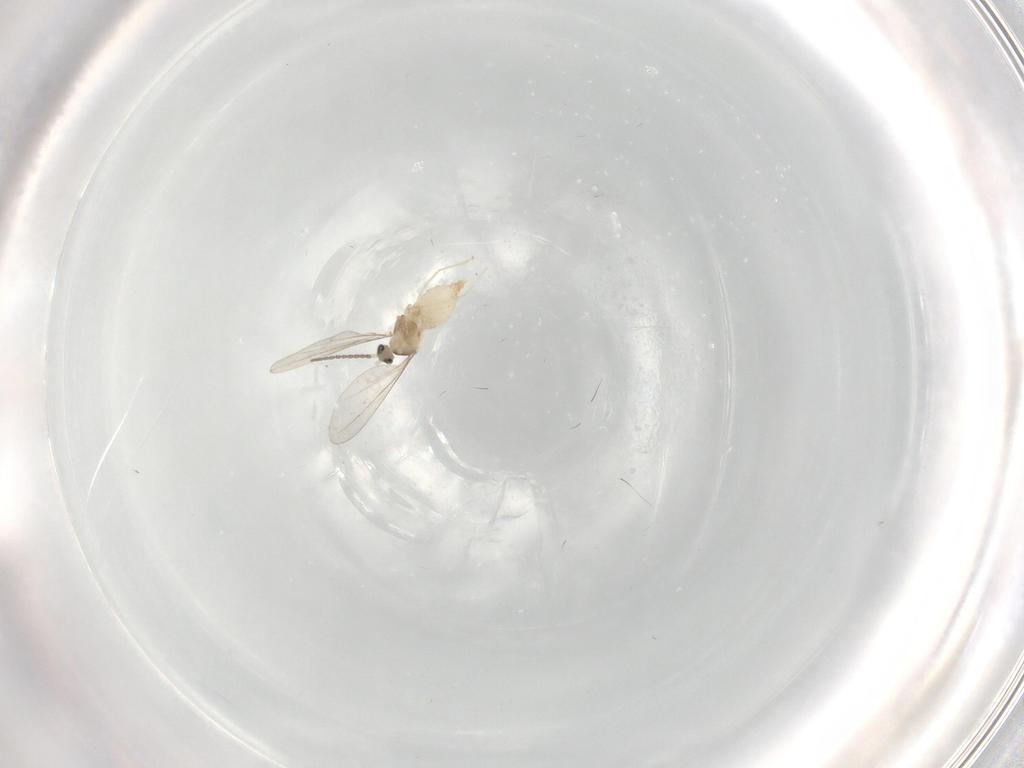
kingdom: Animalia
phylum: Arthropoda
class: Insecta
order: Diptera
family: Cecidomyiidae
